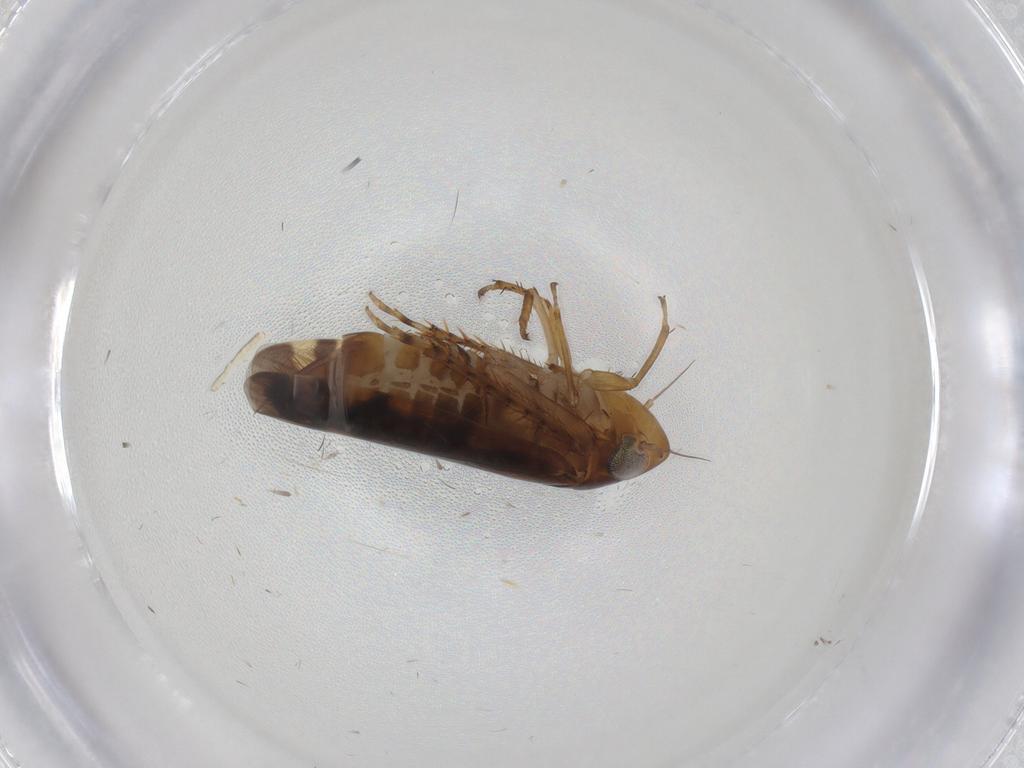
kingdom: Animalia
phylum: Arthropoda
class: Insecta
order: Hemiptera
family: Cicadellidae
